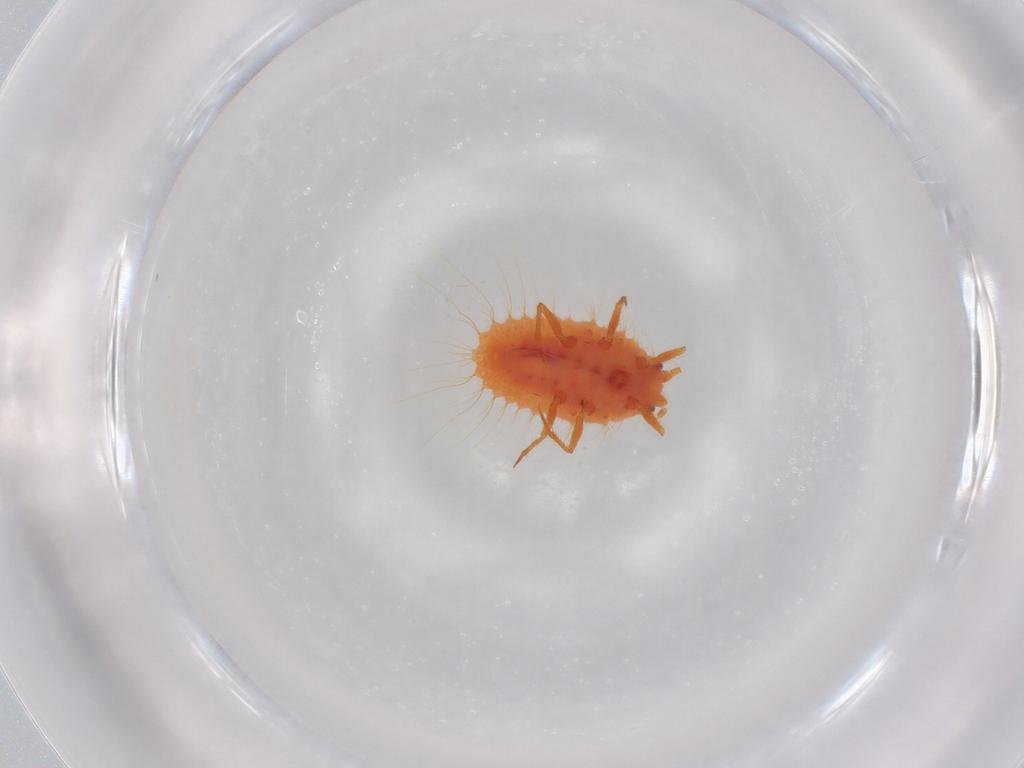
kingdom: Animalia
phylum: Arthropoda
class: Insecta
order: Hemiptera
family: Coccoidea_incertae_sedis
